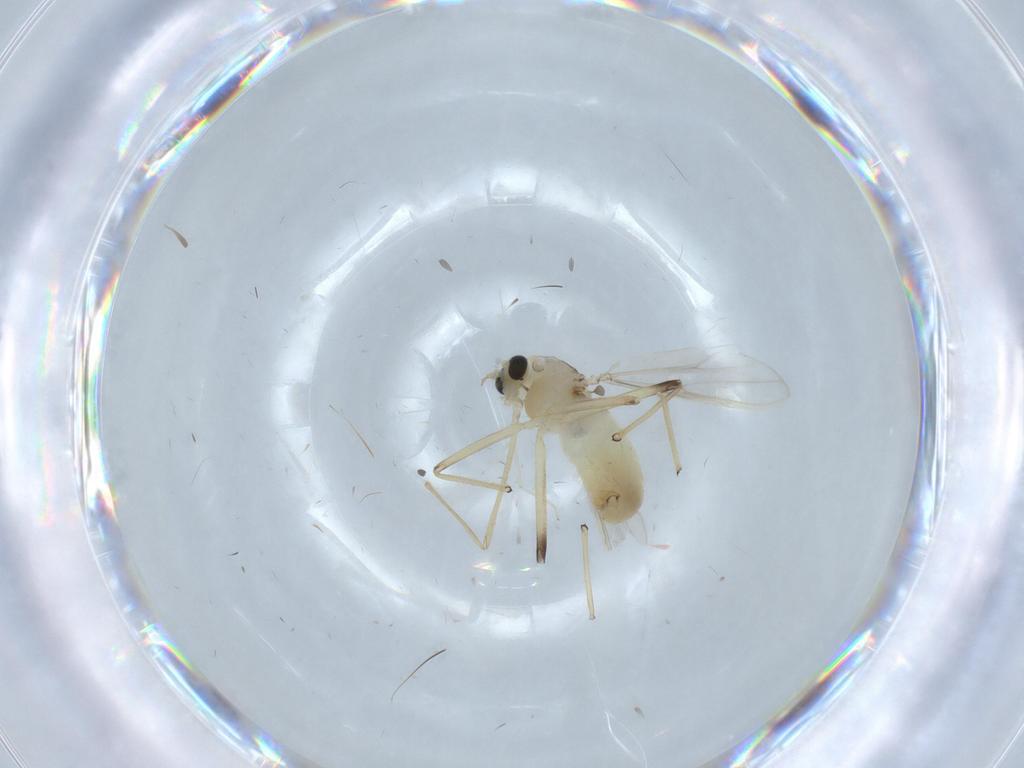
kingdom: Animalia
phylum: Arthropoda
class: Insecta
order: Diptera
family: Chironomidae
